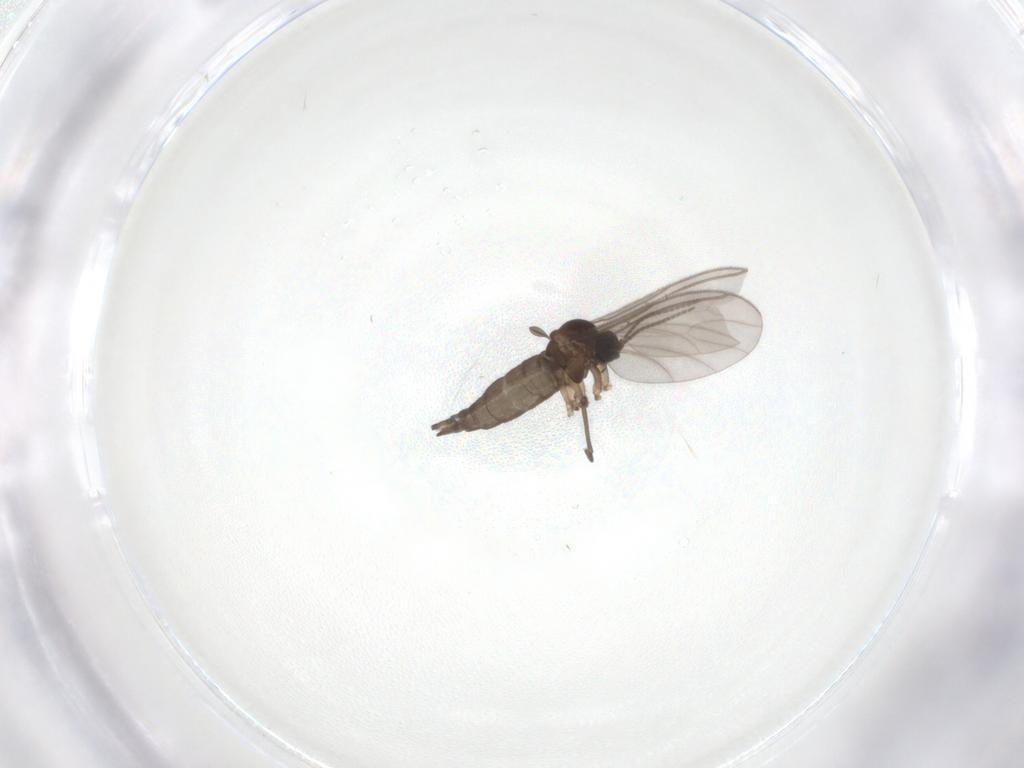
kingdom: Animalia
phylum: Arthropoda
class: Insecta
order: Diptera
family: Sciaridae
